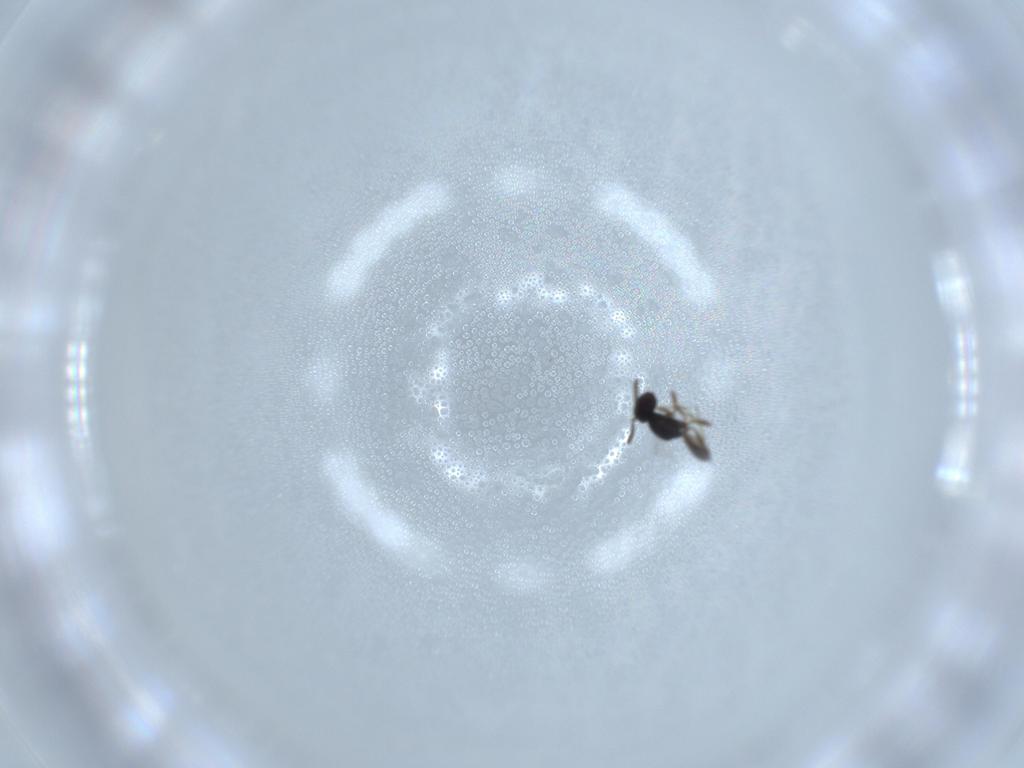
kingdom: Animalia
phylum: Arthropoda
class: Insecta
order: Hymenoptera
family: Pteromalidae
